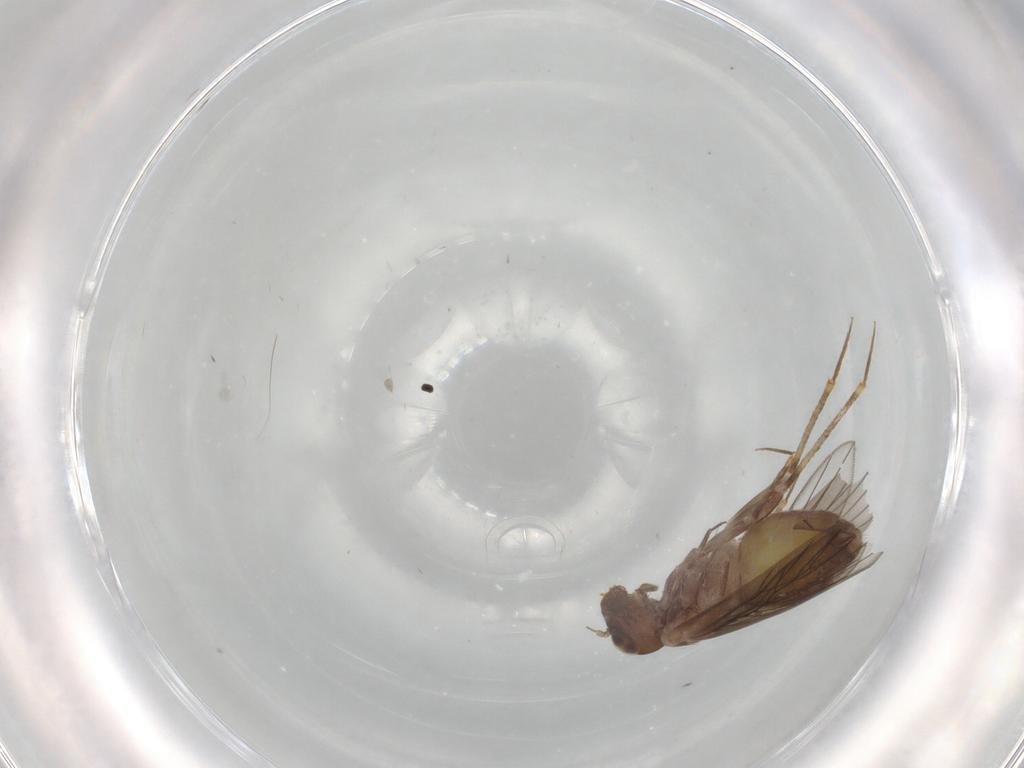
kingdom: Animalia
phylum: Arthropoda
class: Insecta
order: Psocodea
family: Lepidopsocidae
